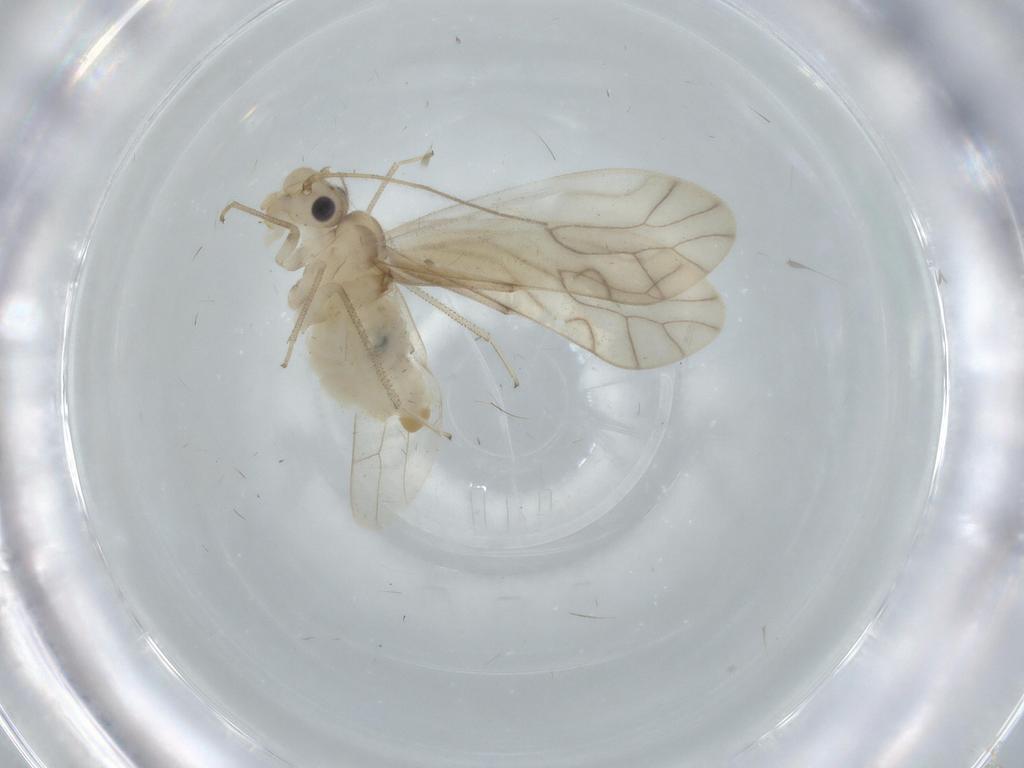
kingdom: Animalia
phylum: Arthropoda
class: Insecta
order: Psocodea
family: Caeciliusidae
